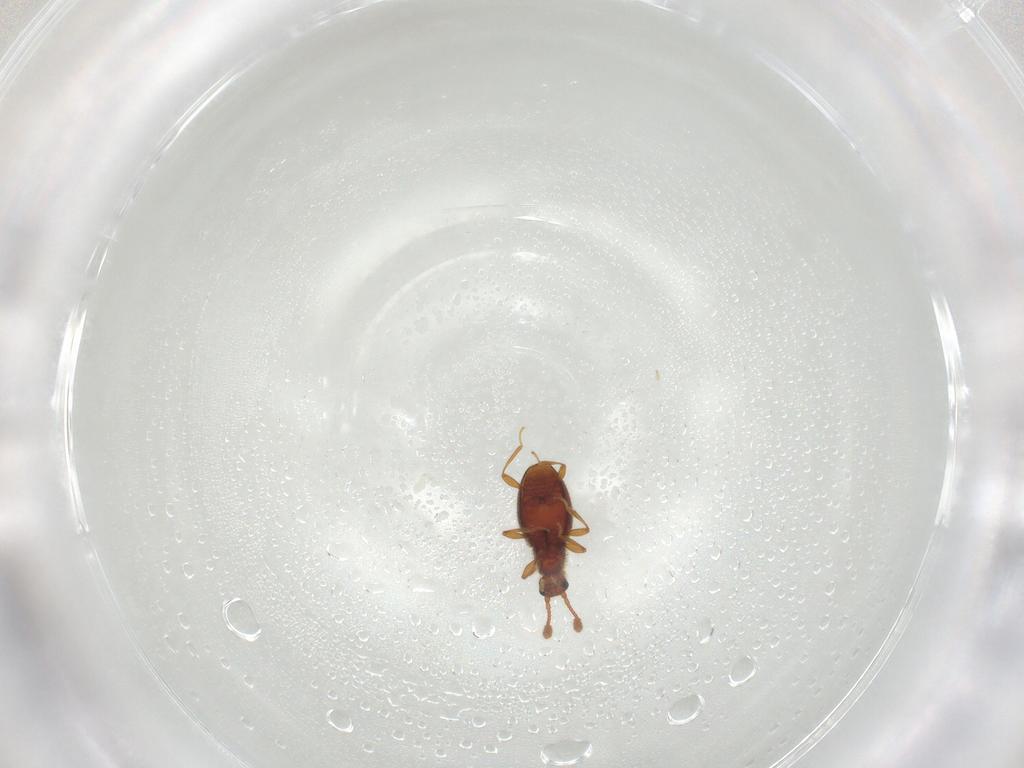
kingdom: Animalia
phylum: Arthropoda
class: Insecta
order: Coleoptera
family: Staphylinidae
